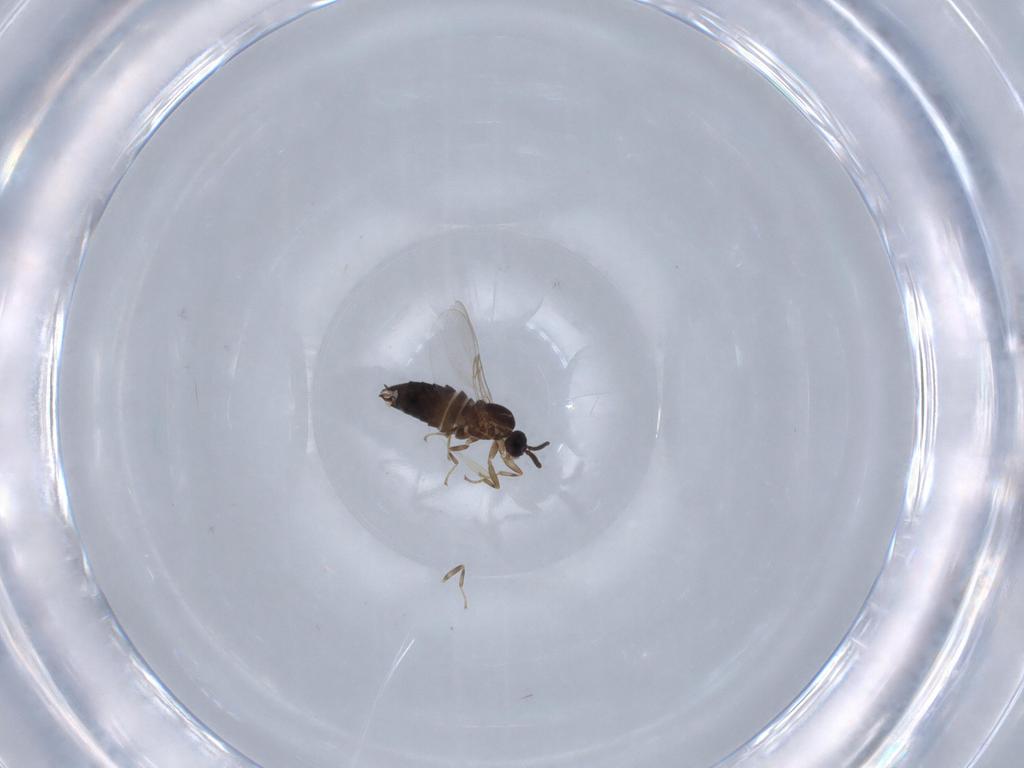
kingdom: Animalia
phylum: Arthropoda
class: Insecta
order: Diptera
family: Scatopsidae
